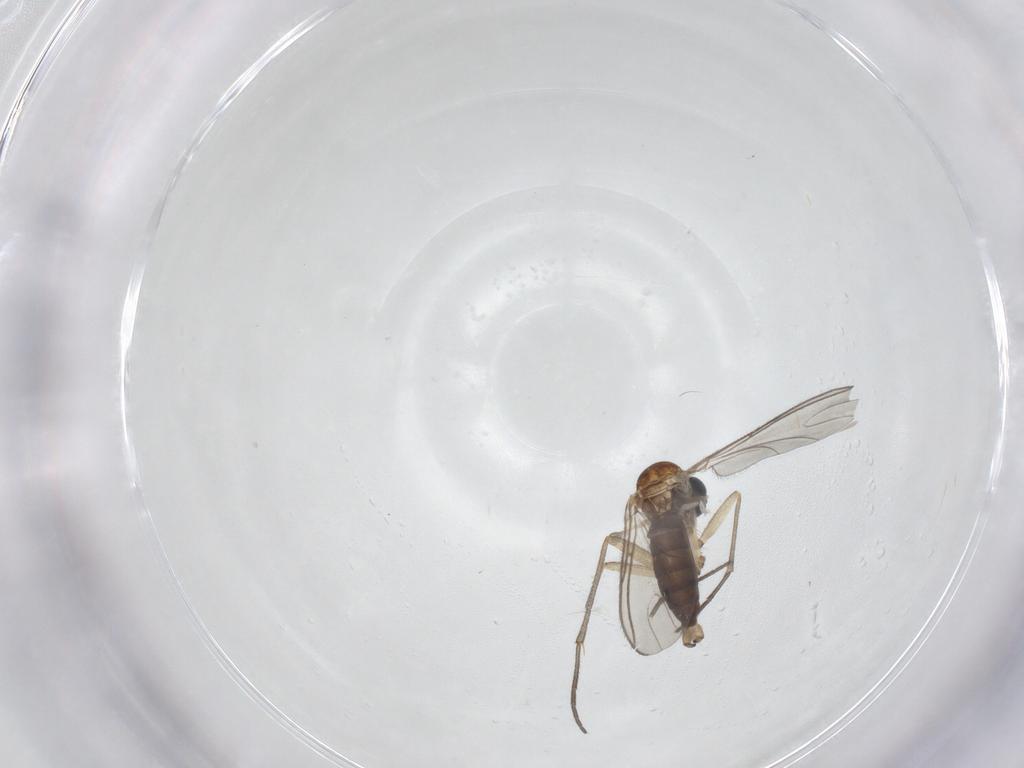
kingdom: Animalia
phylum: Arthropoda
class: Insecta
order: Diptera
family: Sciaridae
